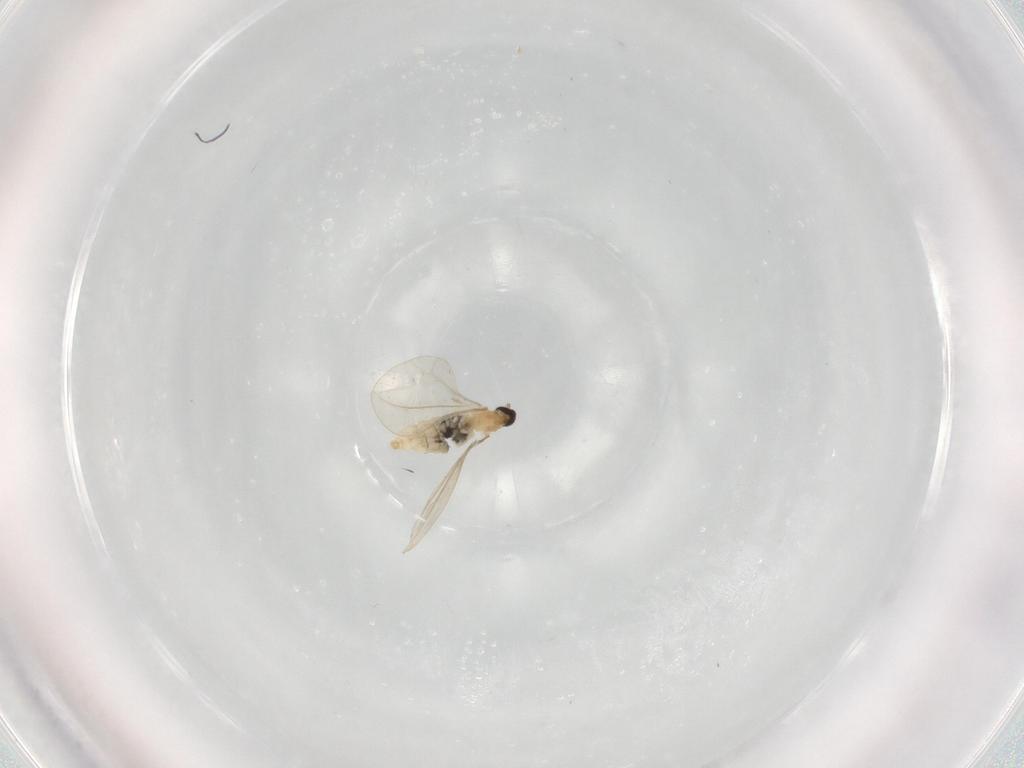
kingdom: Animalia
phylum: Arthropoda
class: Insecta
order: Diptera
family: Cecidomyiidae
